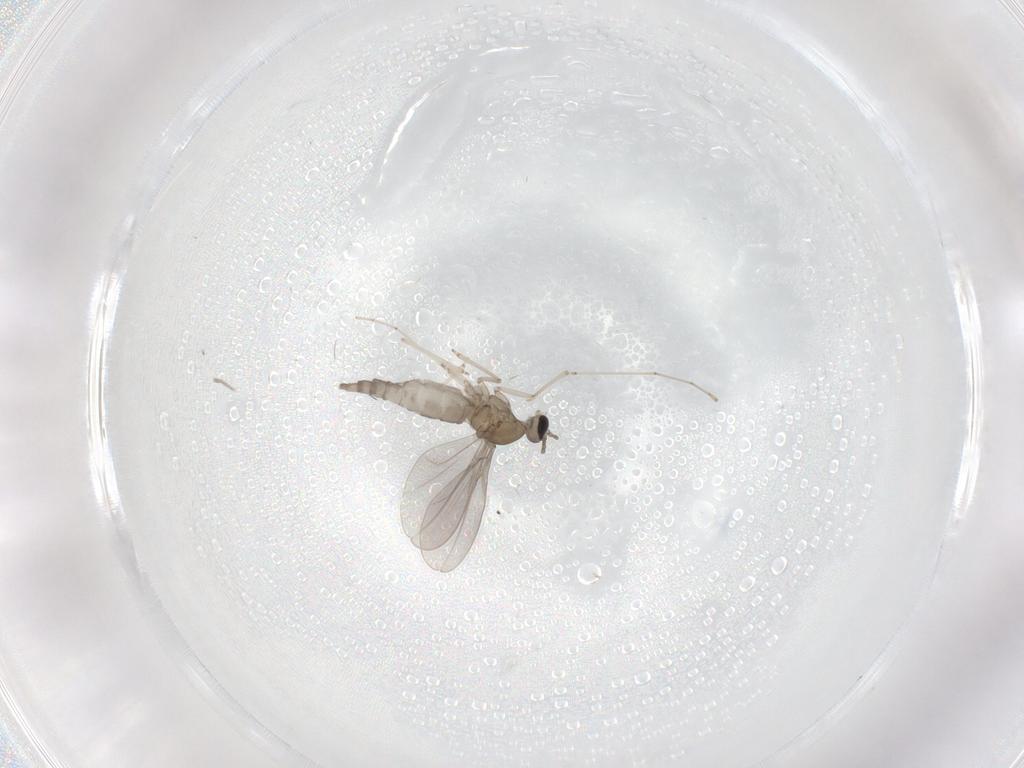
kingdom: Animalia
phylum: Arthropoda
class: Insecta
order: Diptera
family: Cecidomyiidae
